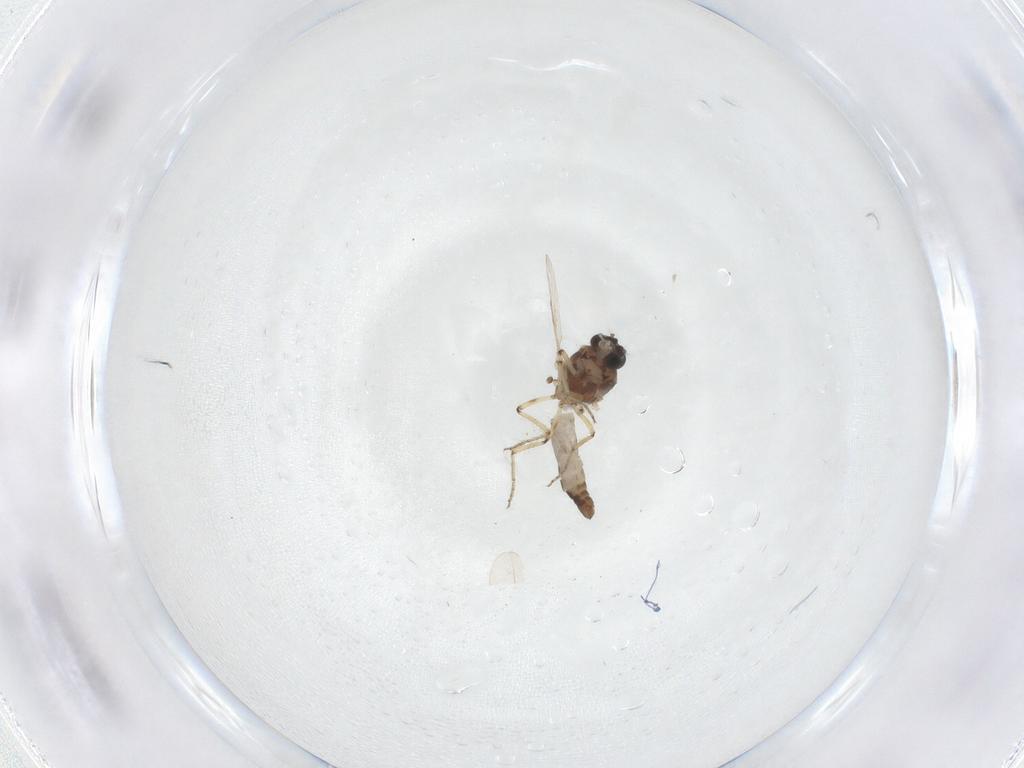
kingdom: Animalia
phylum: Arthropoda
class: Insecta
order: Diptera
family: Ceratopogonidae
